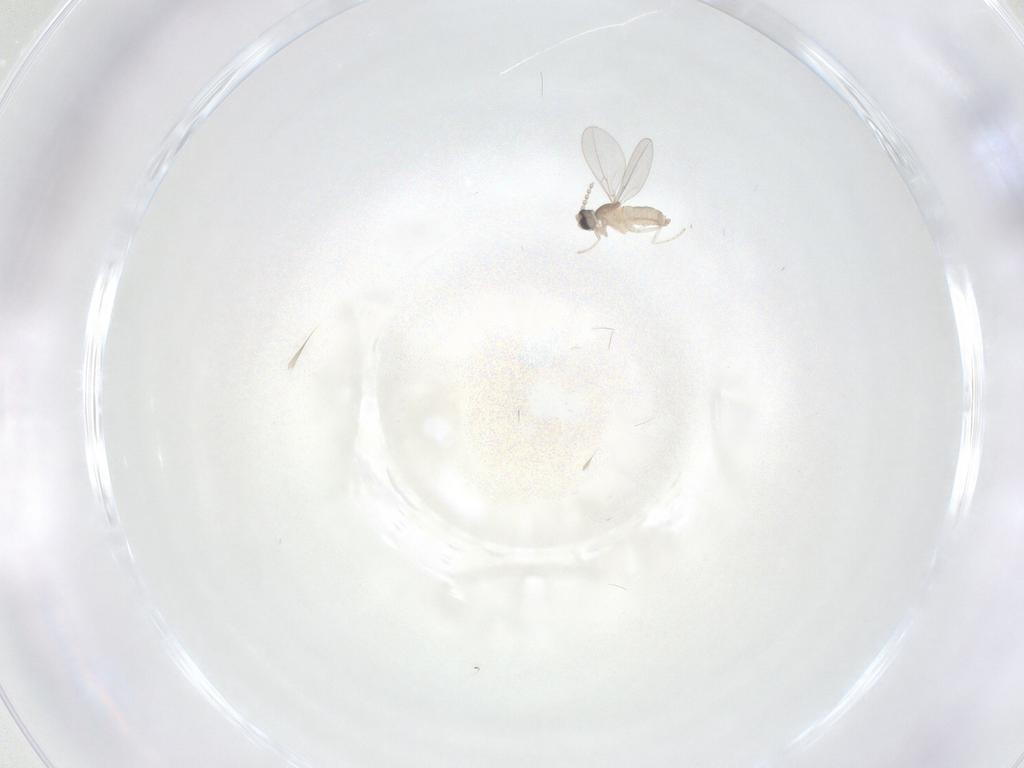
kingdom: Animalia
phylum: Arthropoda
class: Insecta
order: Diptera
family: Cecidomyiidae
